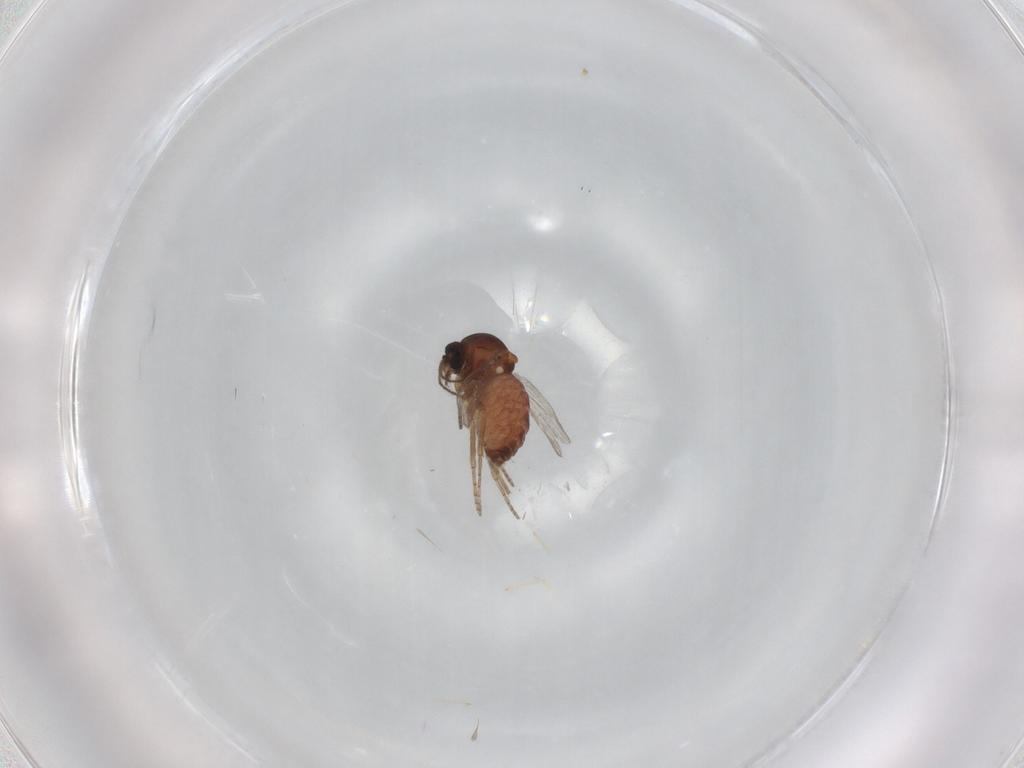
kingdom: Animalia
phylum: Arthropoda
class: Insecta
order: Diptera
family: Ceratopogonidae
